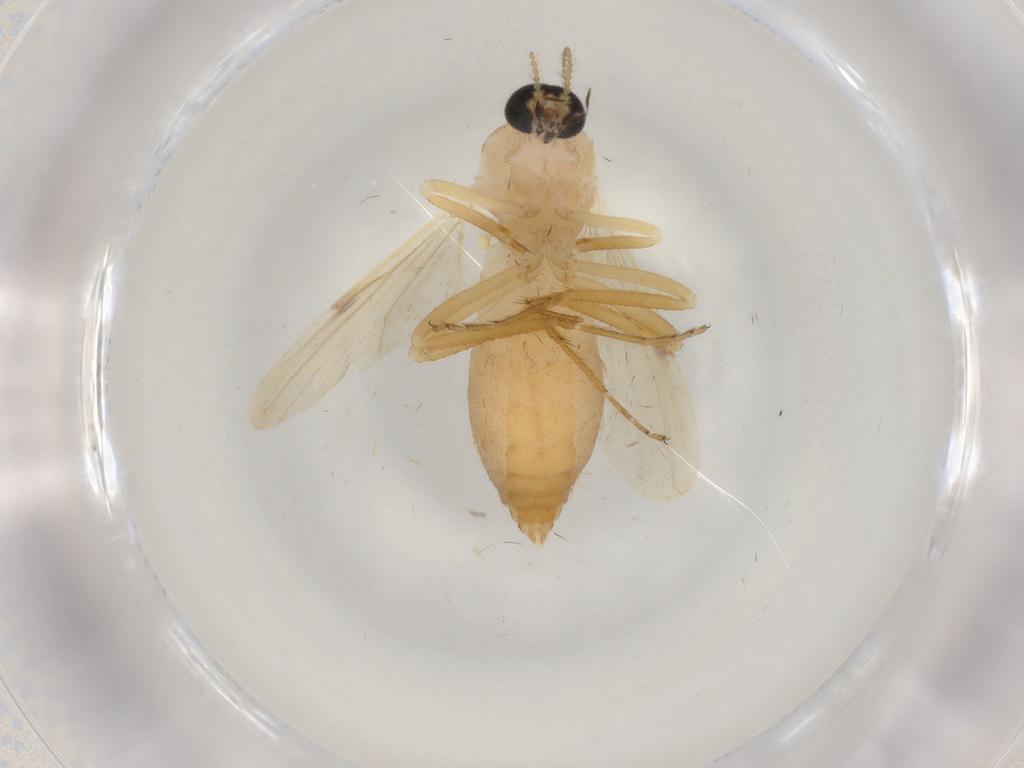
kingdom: Animalia
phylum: Arthropoda
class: Insecta
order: Diptera
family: Ceratopogonidae
